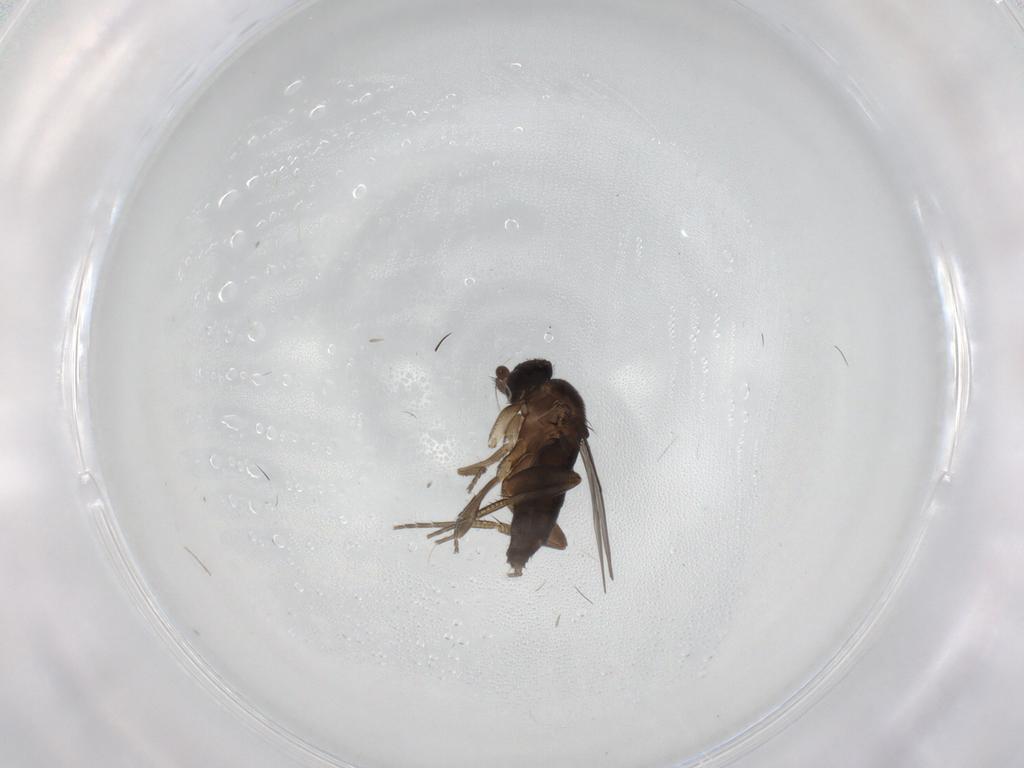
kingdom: Animalia
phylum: Arthropoda
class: Insecta
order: Diptera
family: Phoridae
